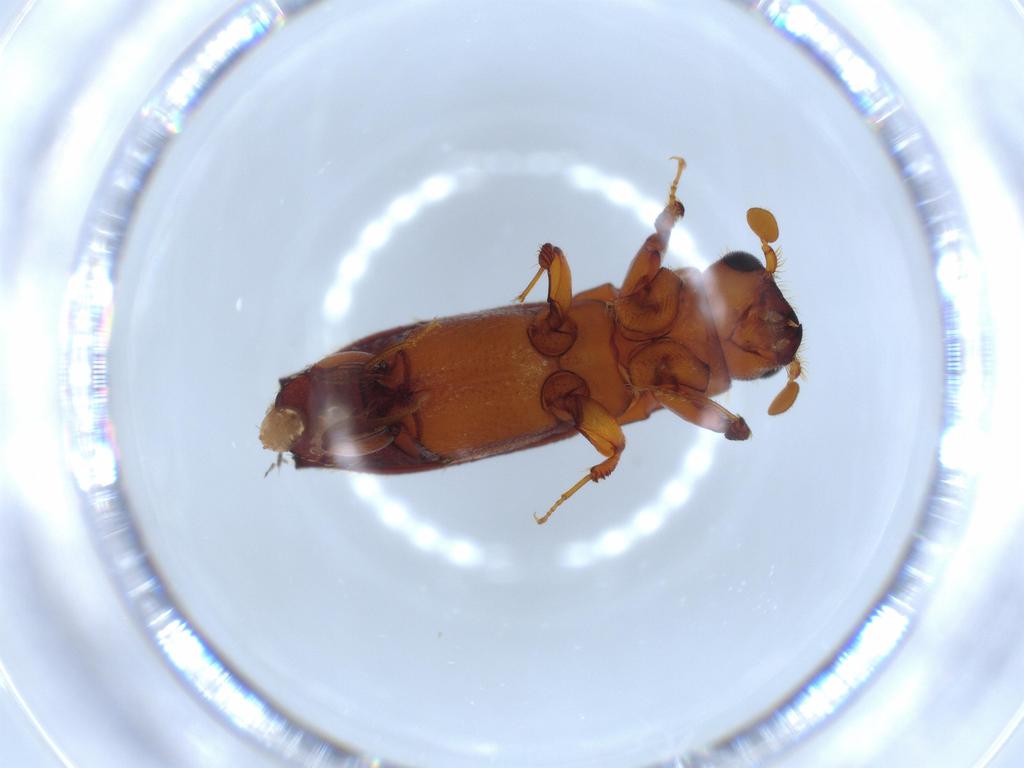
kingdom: Animalia
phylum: Arthropoda
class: Insecta
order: Coleoptera
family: Curculionidae
